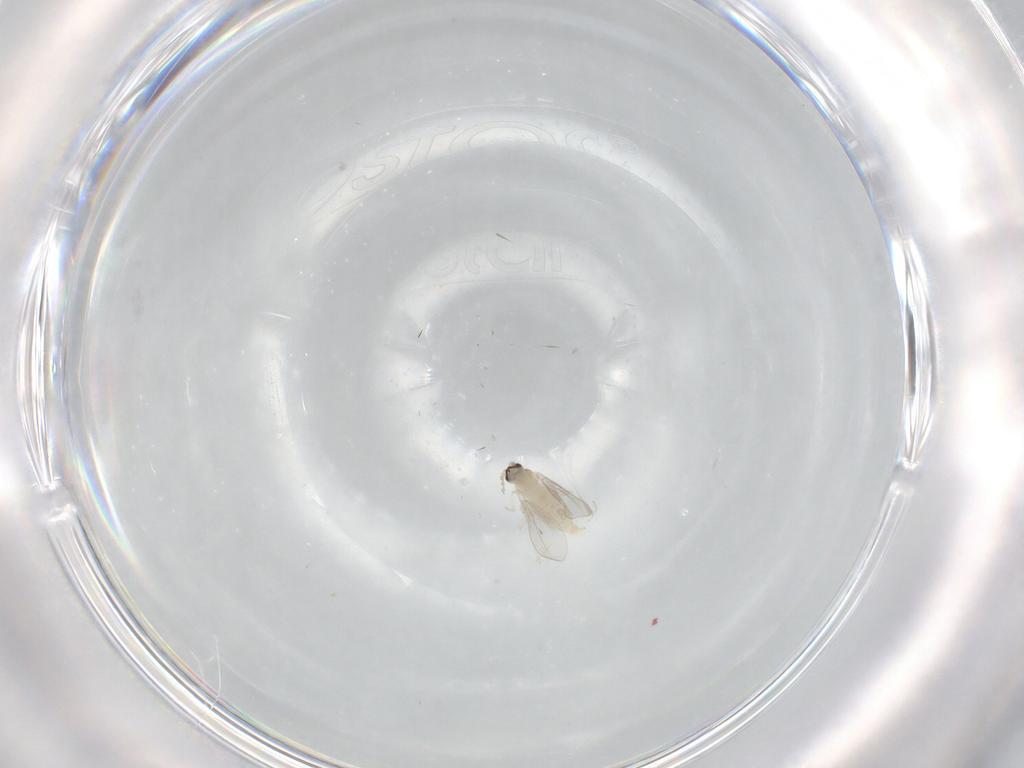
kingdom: Animalia
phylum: Arthropoda
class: Insecta
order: Diptera
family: Cecidomyiidae
